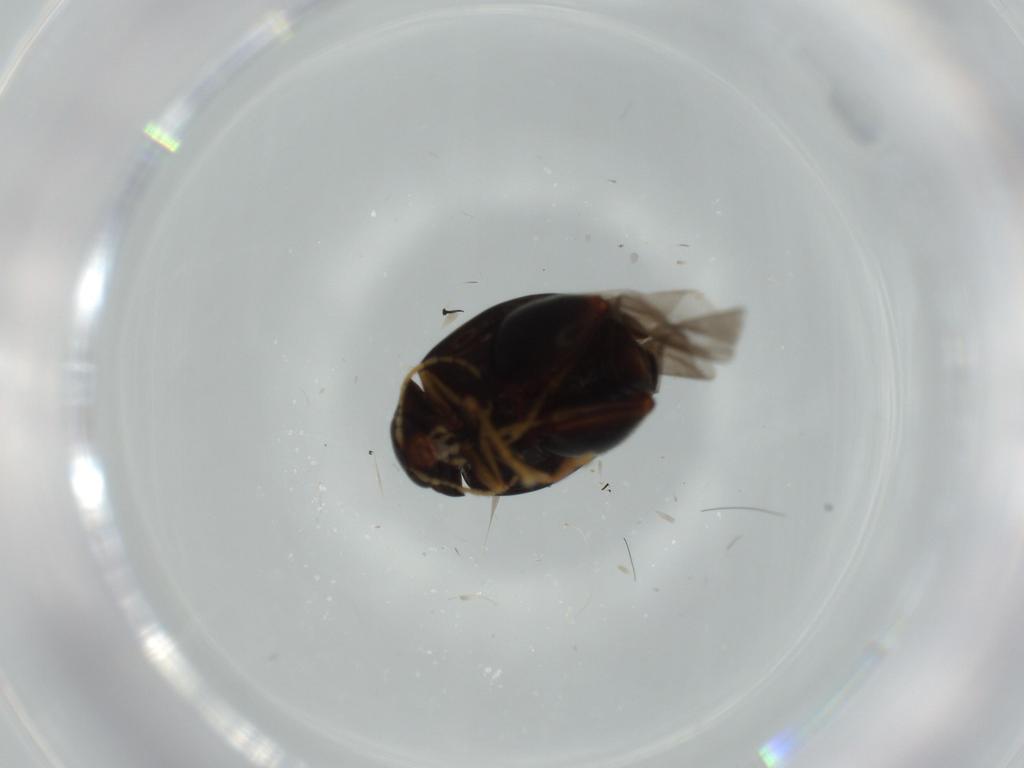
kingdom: Animalia
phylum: Arthropoda
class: Insecta
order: Coleoptera
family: Chrysomelidae
